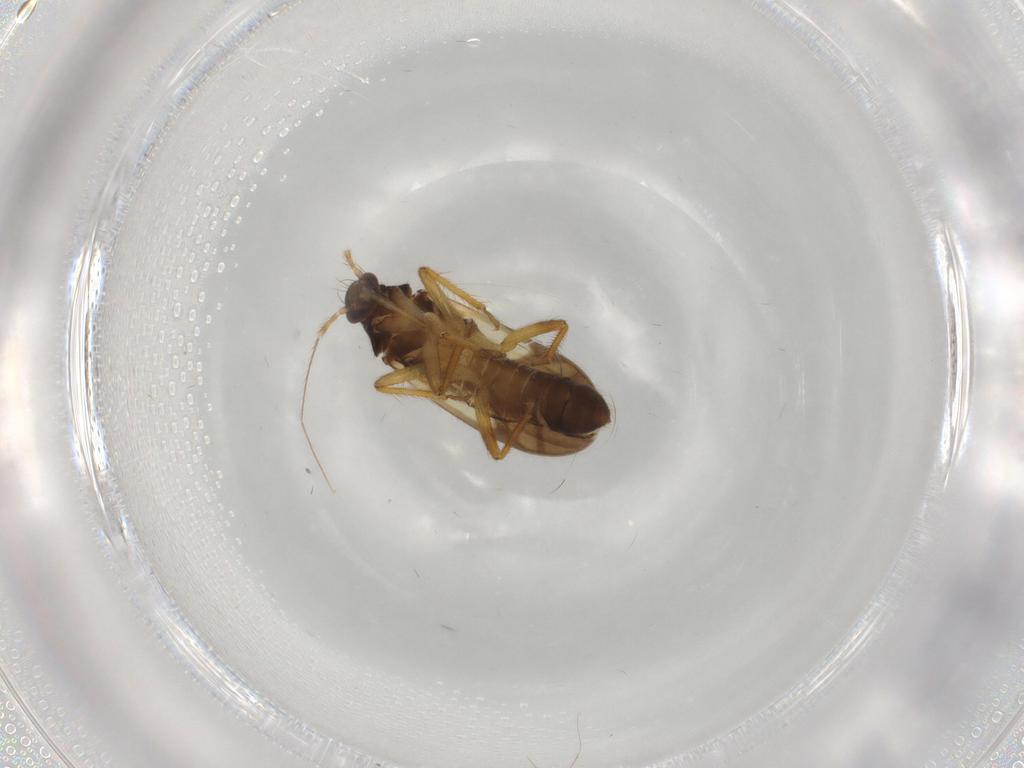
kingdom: Animalia
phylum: Arthropoda
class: Insecta
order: Hemiptera
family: Ceratocombidae
